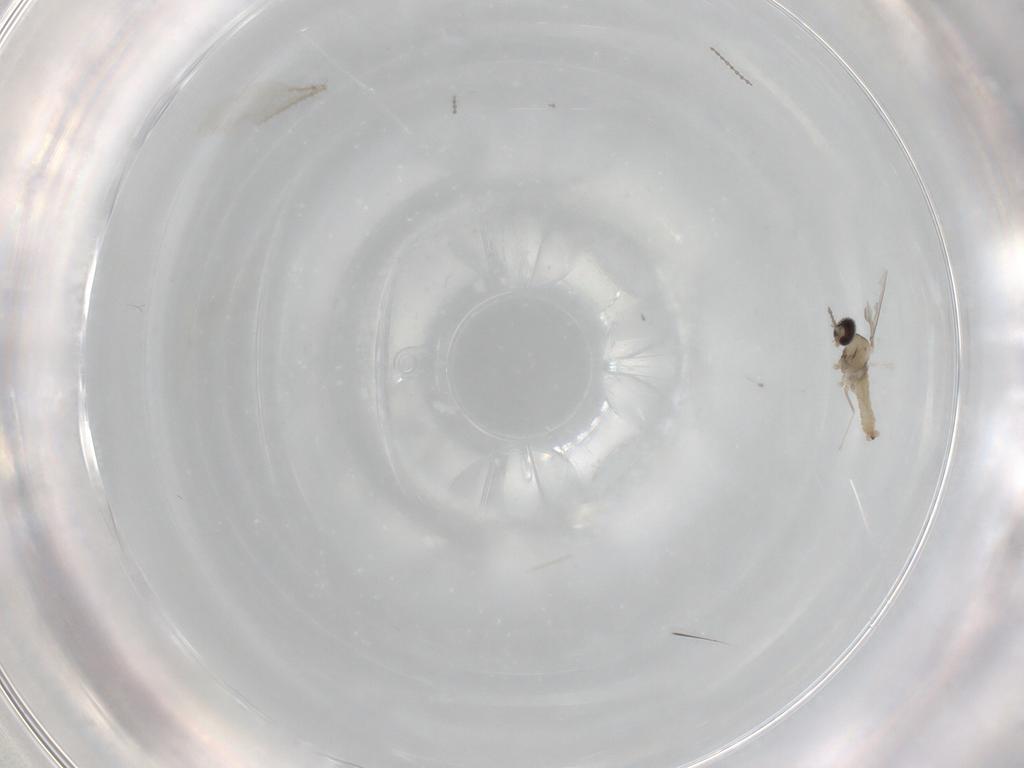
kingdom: Animalia
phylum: Arthropoda
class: Insecta
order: Diptera
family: Cecidomyiidae
